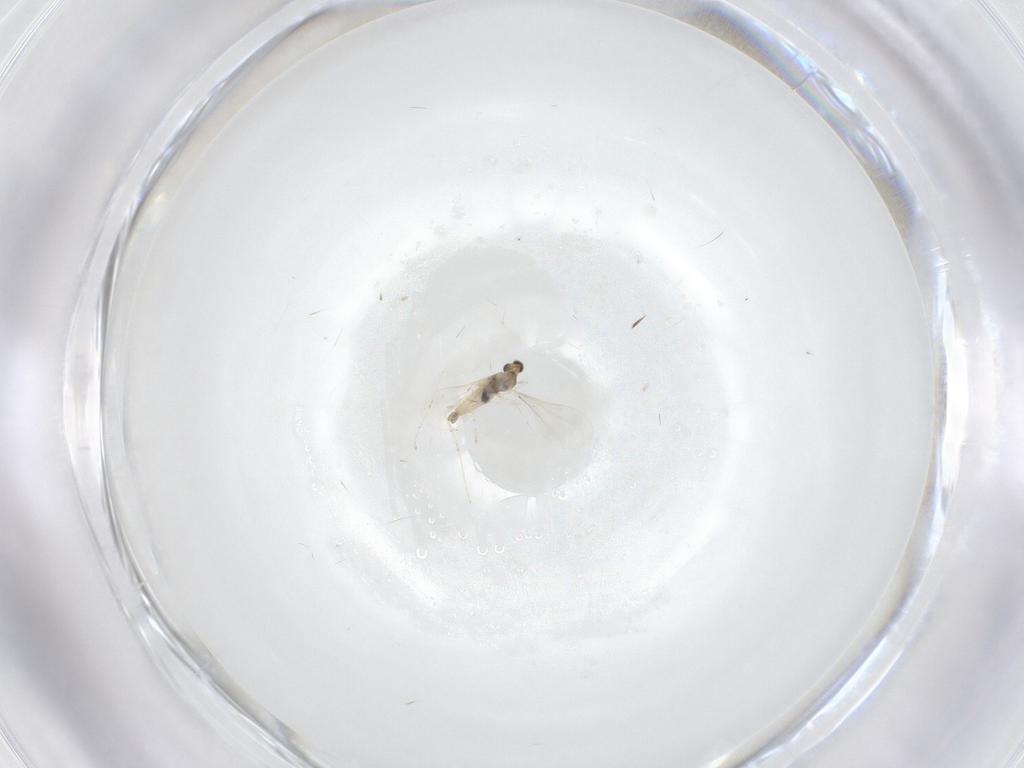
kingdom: Animalia
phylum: Arthropoda
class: Insecta
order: Diptera
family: Cecidomyiidae
